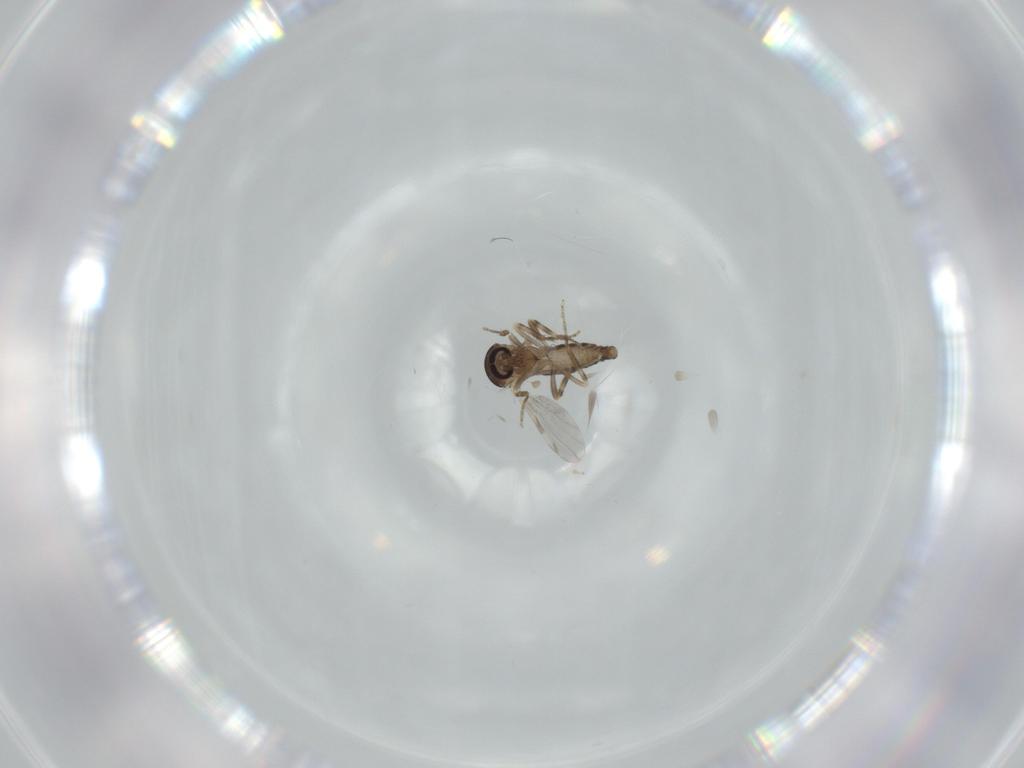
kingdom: Animalia
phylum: Arthropoda
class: Insecta
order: Diptera
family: Ceratopogonidae
